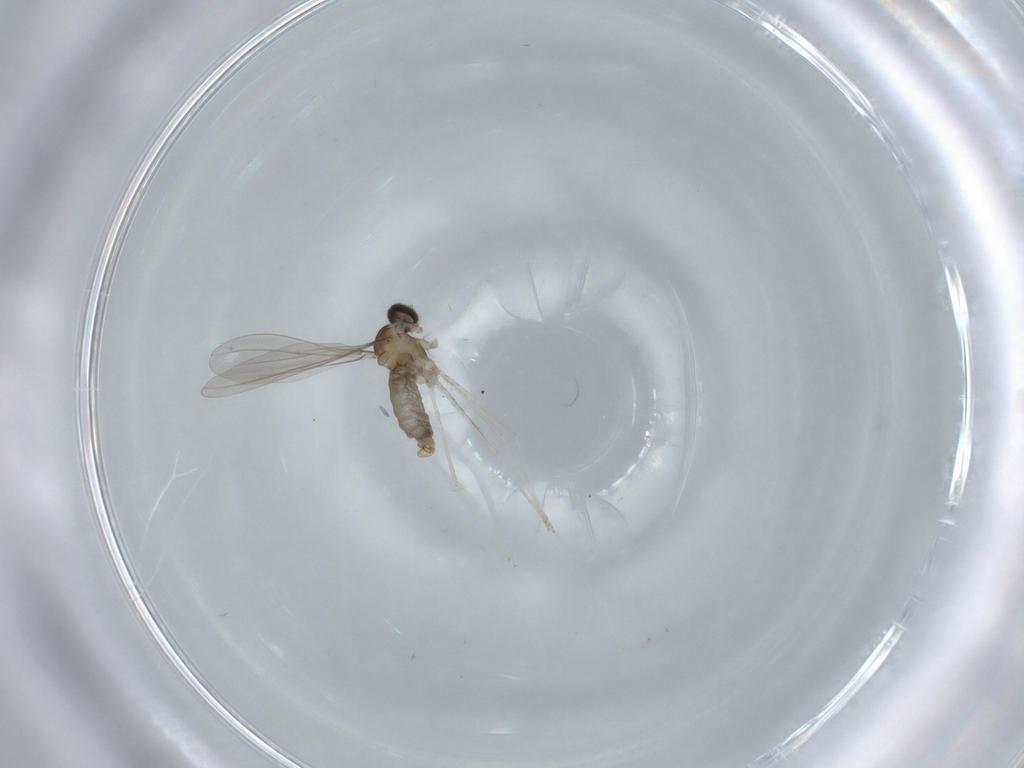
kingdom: Animalia
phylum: Arthropoda
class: Insecta
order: Diptera
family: Cecidomyiidae
